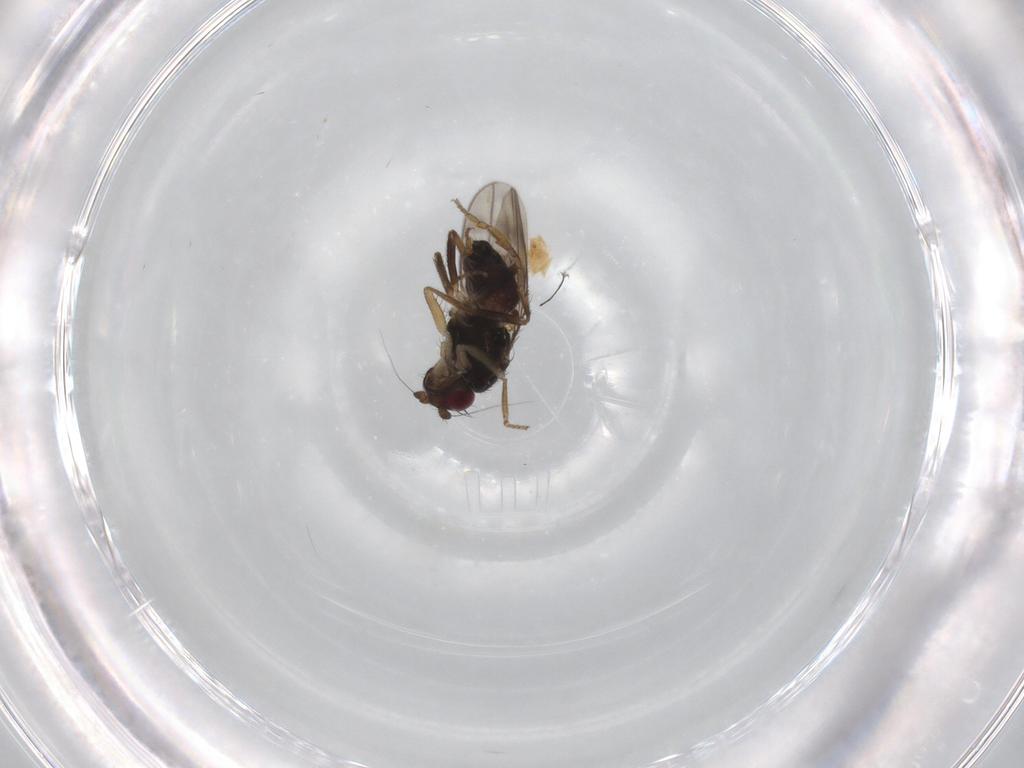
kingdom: Animalia
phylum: Arthropoda
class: Insecta
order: Diptera
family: Sphaeroceridae
